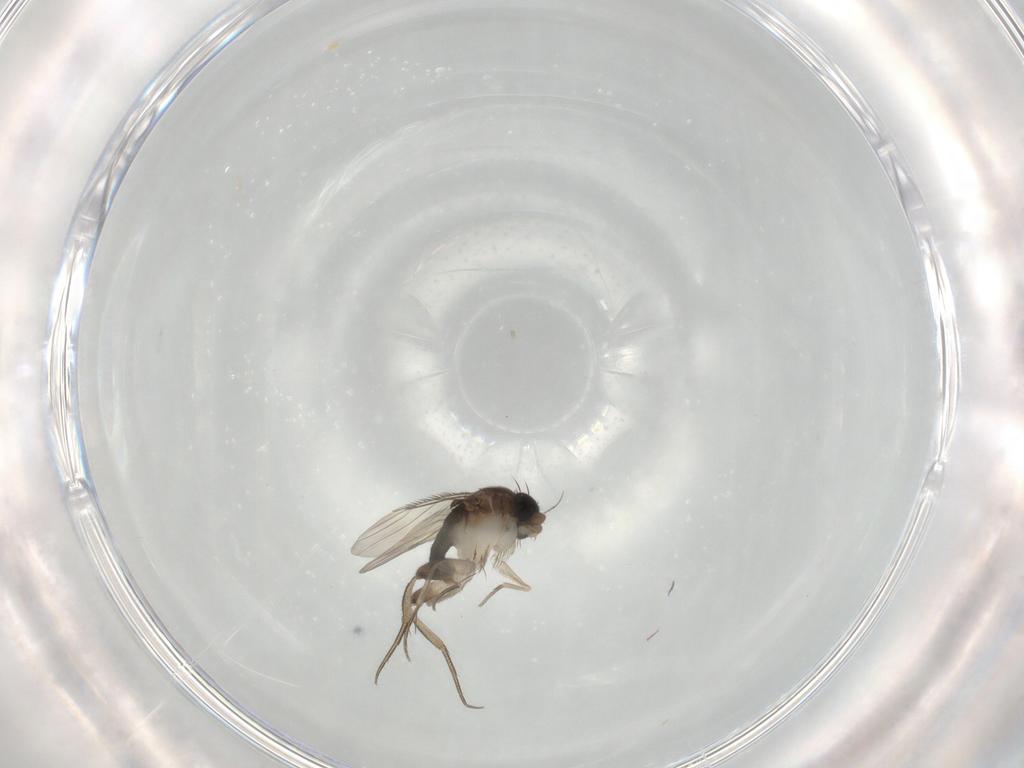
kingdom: Animalia
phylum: Arthropoda
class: Insecta
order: Diptera
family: Phoridae
